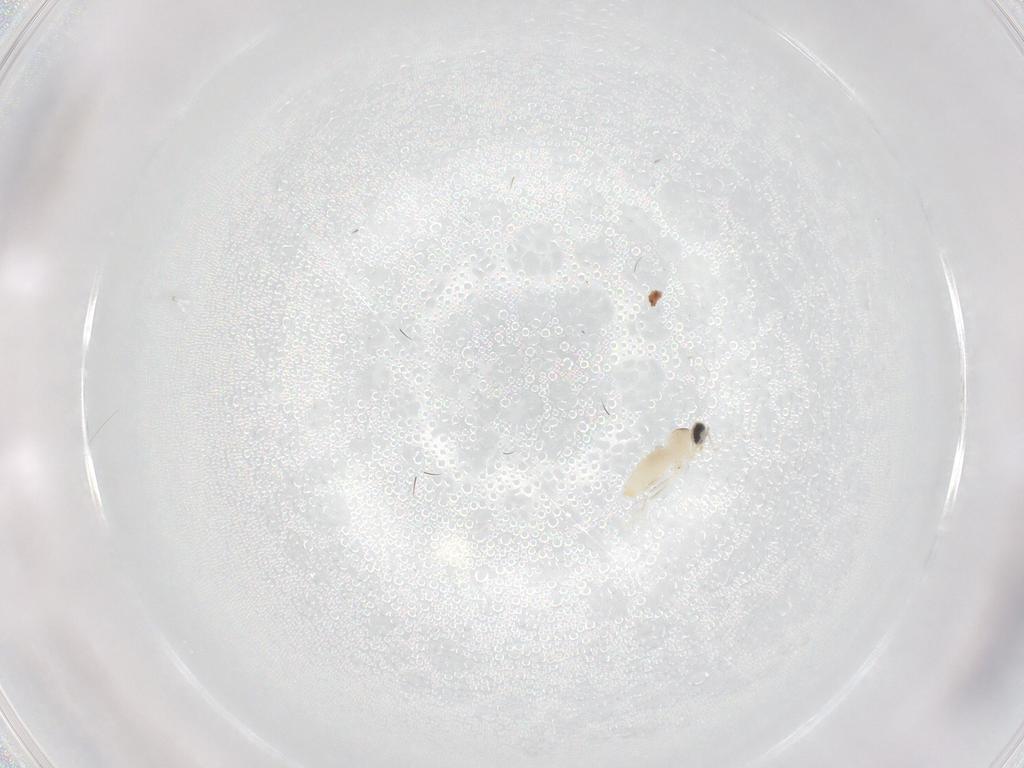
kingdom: Animalia
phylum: Arthropoda
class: Insecta
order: Diptera
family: Cecidomyiidae
